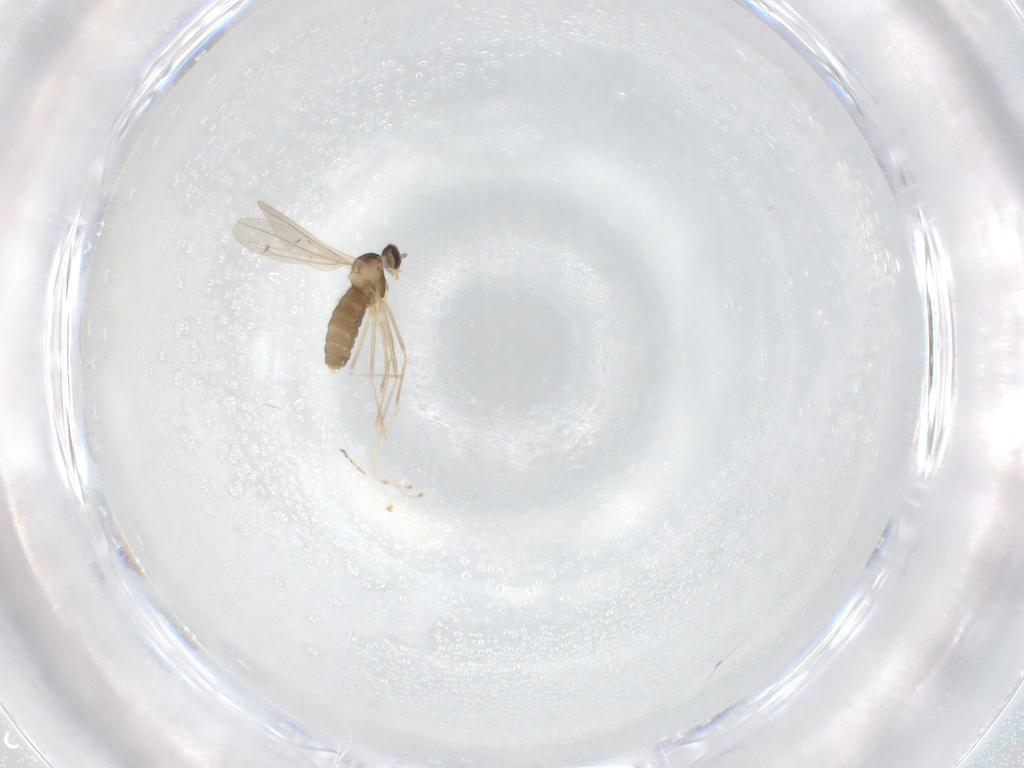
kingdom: Animalia
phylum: Arthropoda
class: Insecta
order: Diptera
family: Cecidomyiidae
